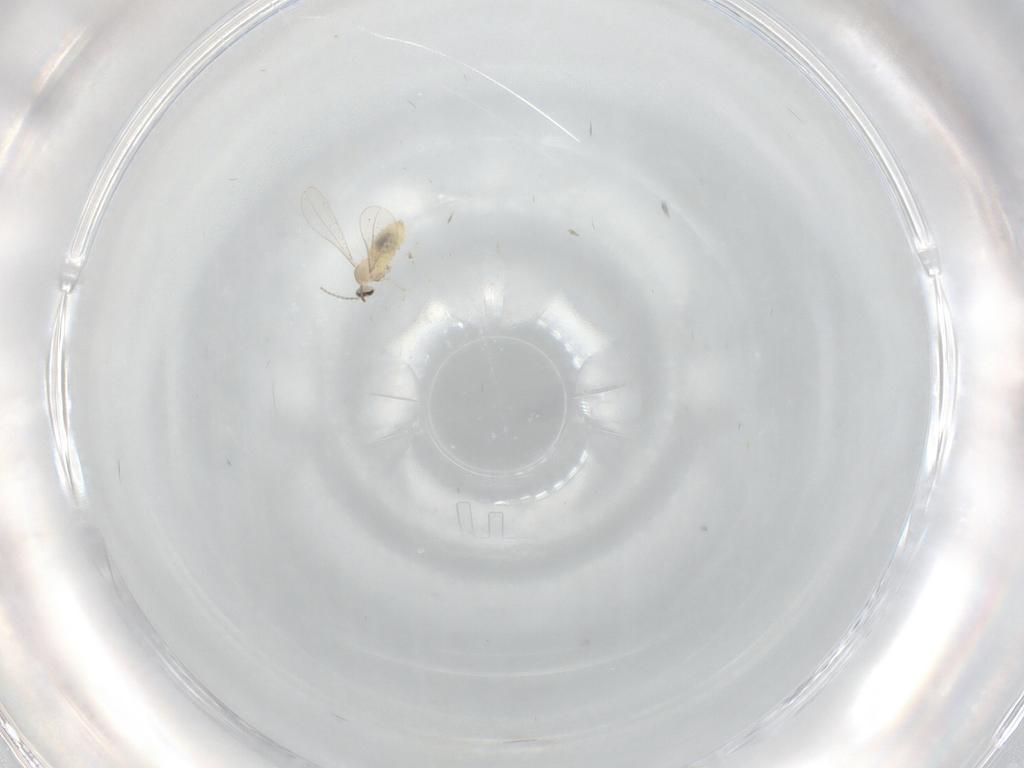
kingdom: Animalia
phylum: Arthropoda
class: Insecta
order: Diptera
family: Cecidomyiidae
